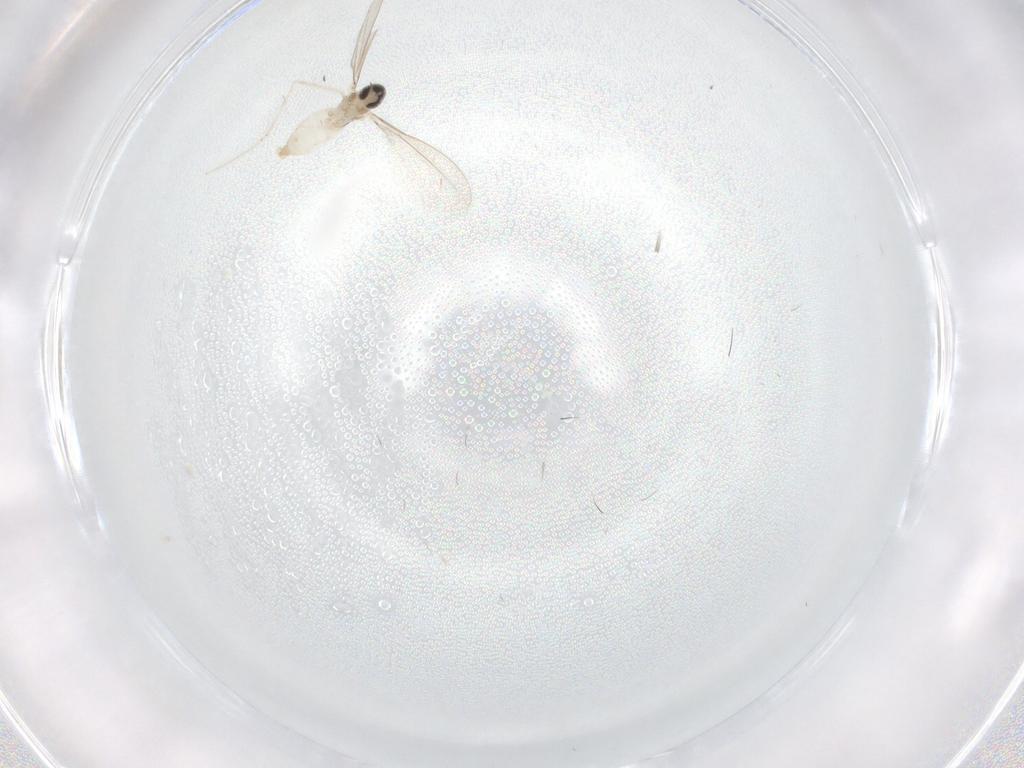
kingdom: Animalia
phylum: Arthropoda
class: Insecta
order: Diptera
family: Cecidomyiidae
